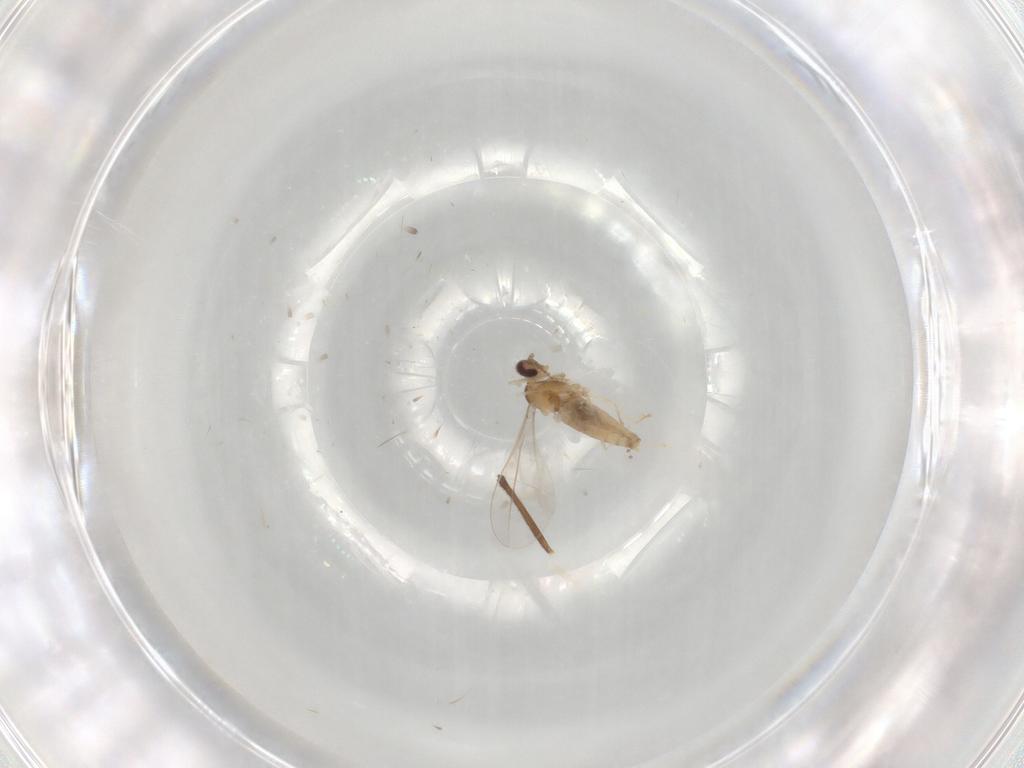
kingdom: Animalia
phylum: Arthropoda
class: Insecta
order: Diptera
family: Cecidomyiidae
